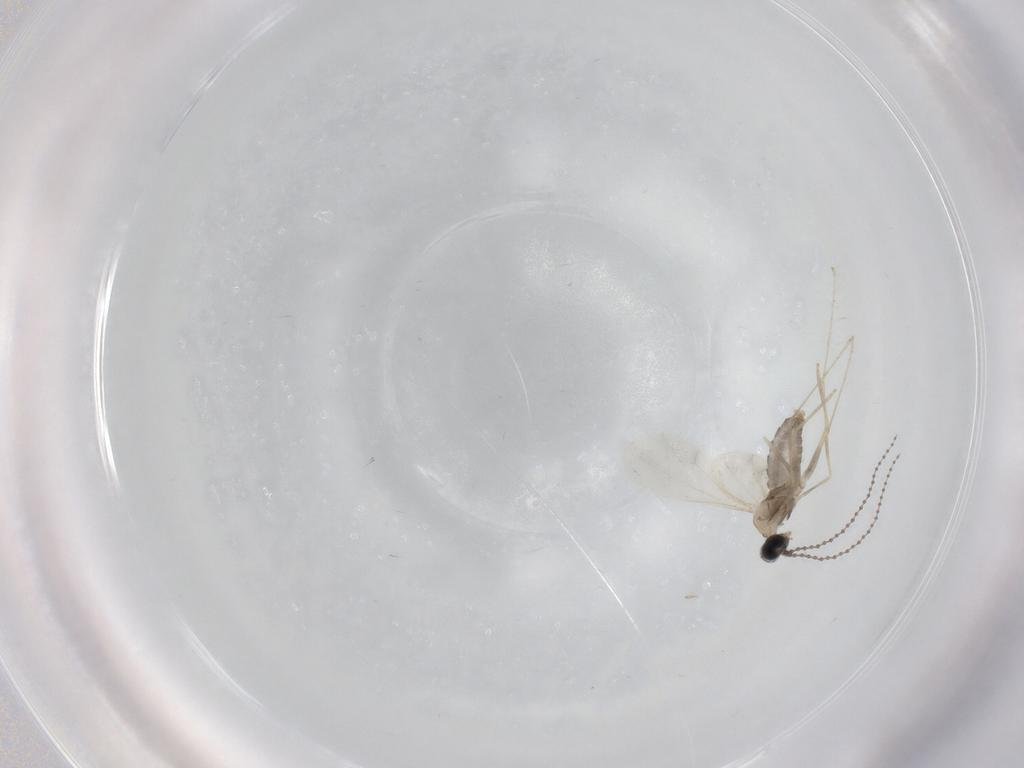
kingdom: Animalia
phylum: Arthropoda
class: Insecta
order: Diptera
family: Cecidomyiidae
